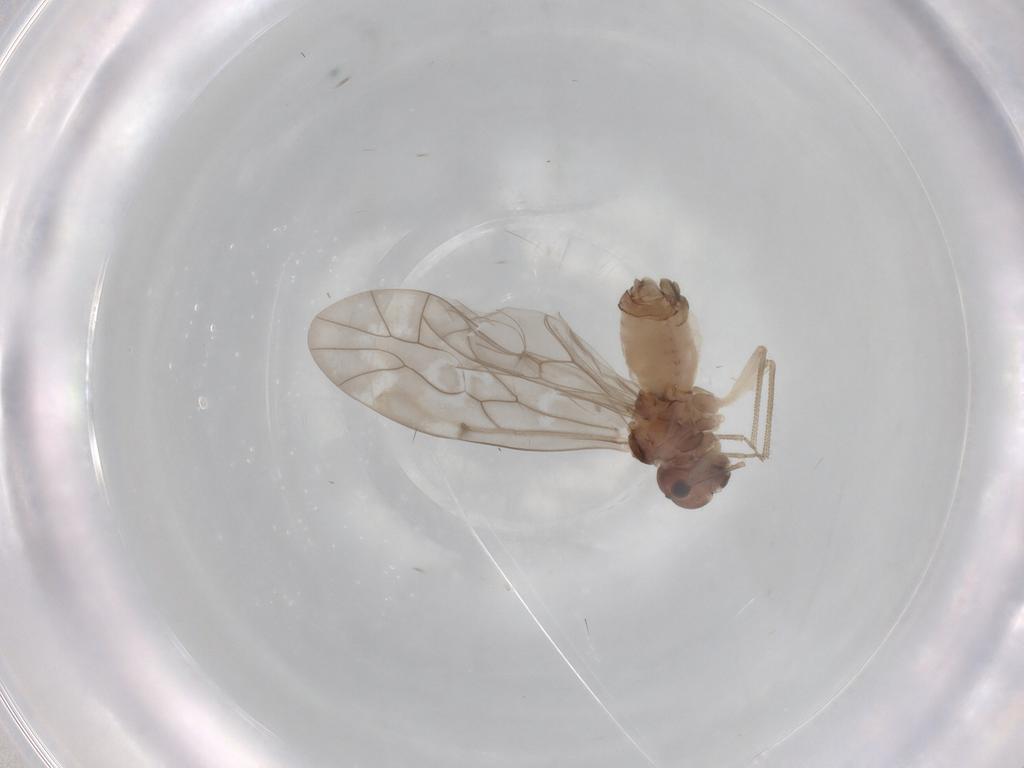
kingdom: Animalia
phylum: Arthropoda
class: Insecta
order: Psocodea
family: Peripsocidae
